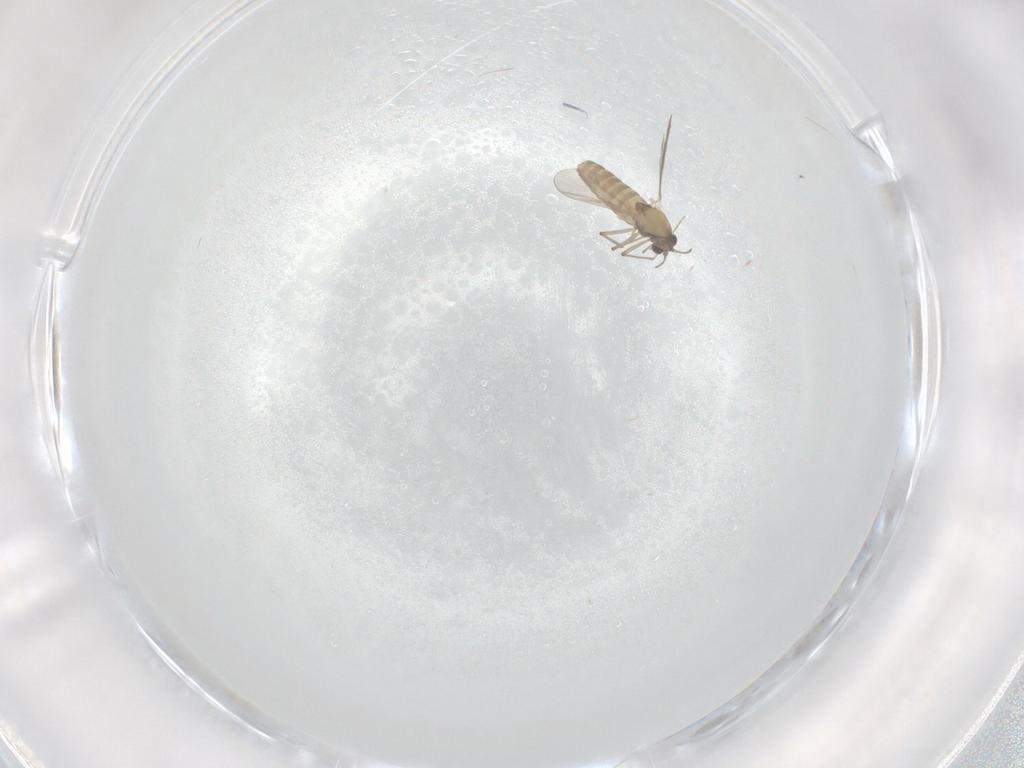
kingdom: Animalia
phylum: Arthropoda
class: Insecta
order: Diptera
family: Chironomidae
